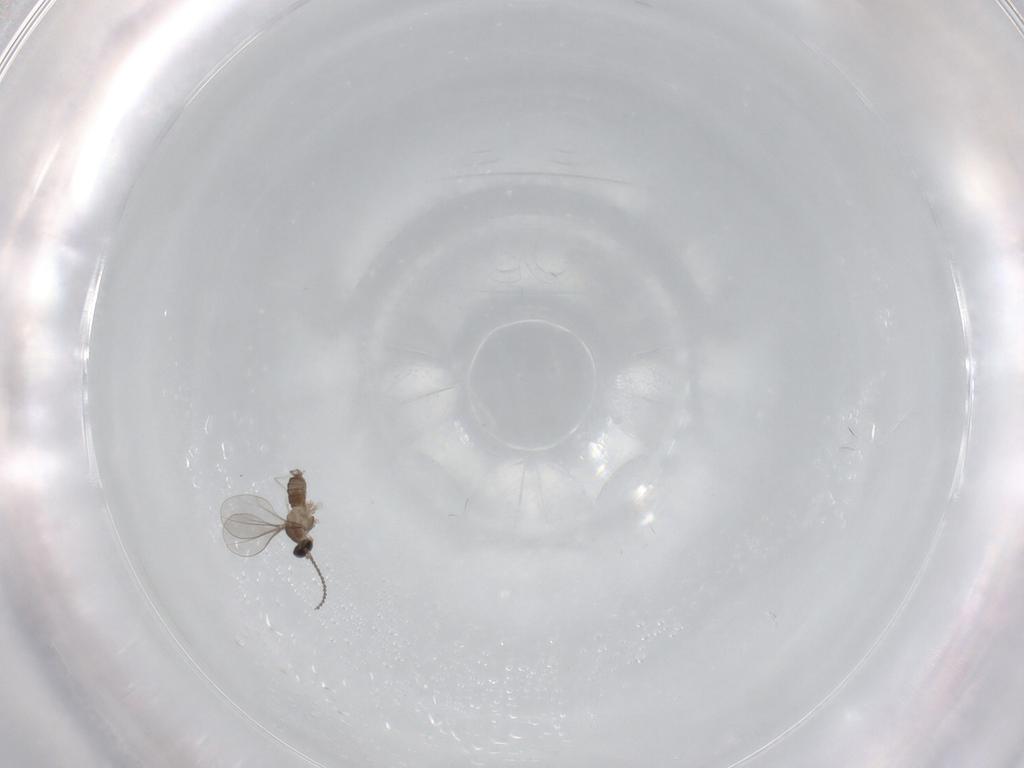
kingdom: Animalia
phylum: Arthropoda
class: Insecta
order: Diptera
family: Cecidomyiidae
